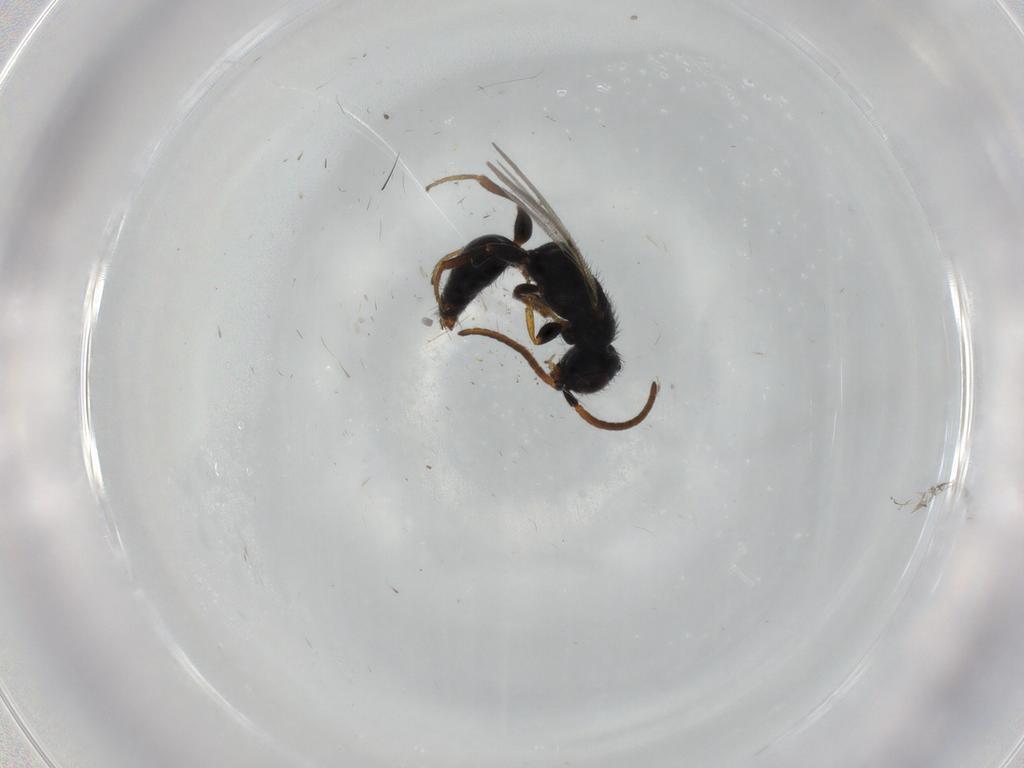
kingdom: Animalia
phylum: Arthropoda
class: Insecta
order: Hymenoptera
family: Bethylidae
